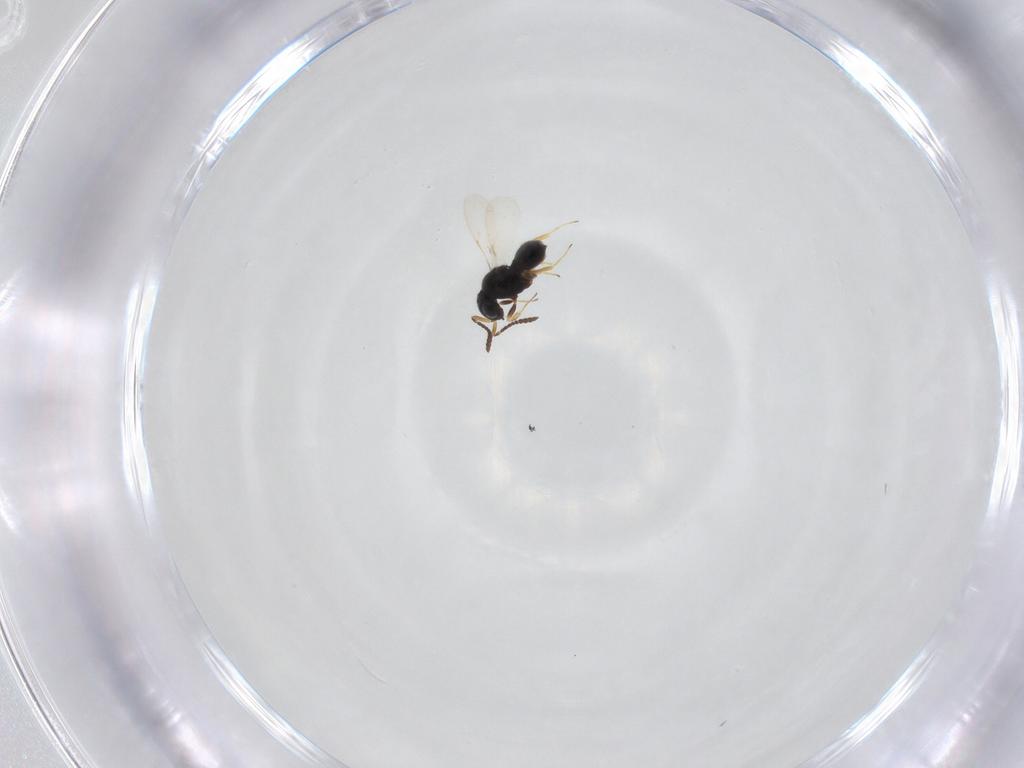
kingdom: Animalia
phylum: Arthropoda
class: Insecta
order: Hymenoptera
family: Scelionidae
